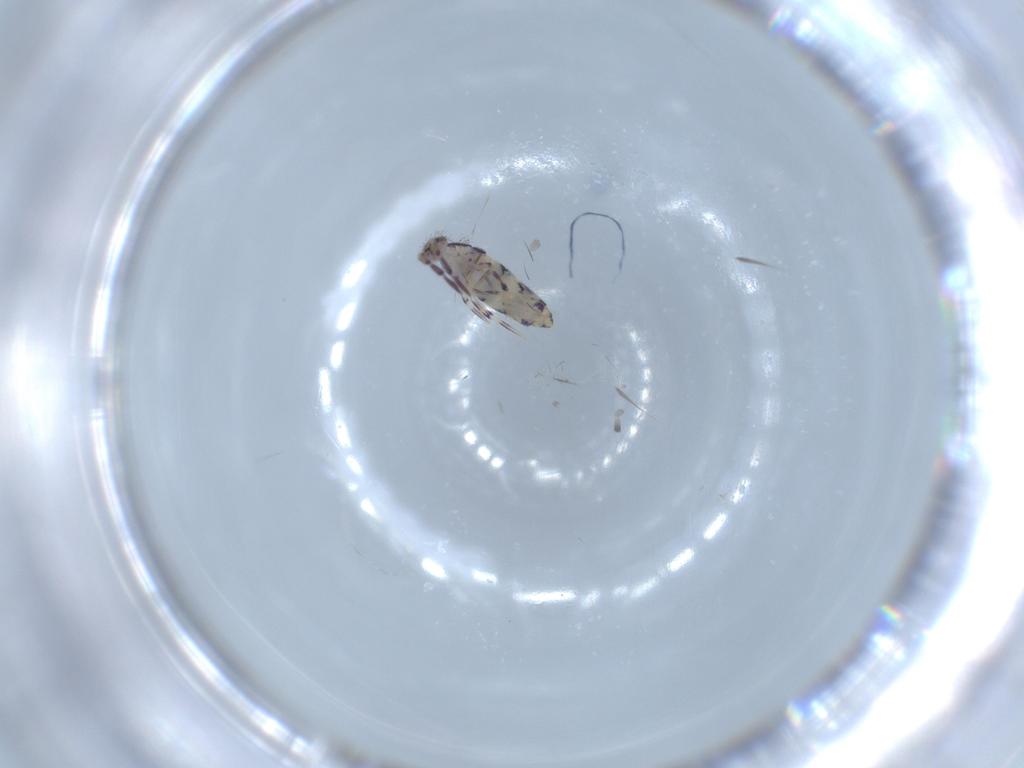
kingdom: Animalia
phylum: Arthropoda
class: Collembola
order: Entomobryomorpha
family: Entomobryidae
